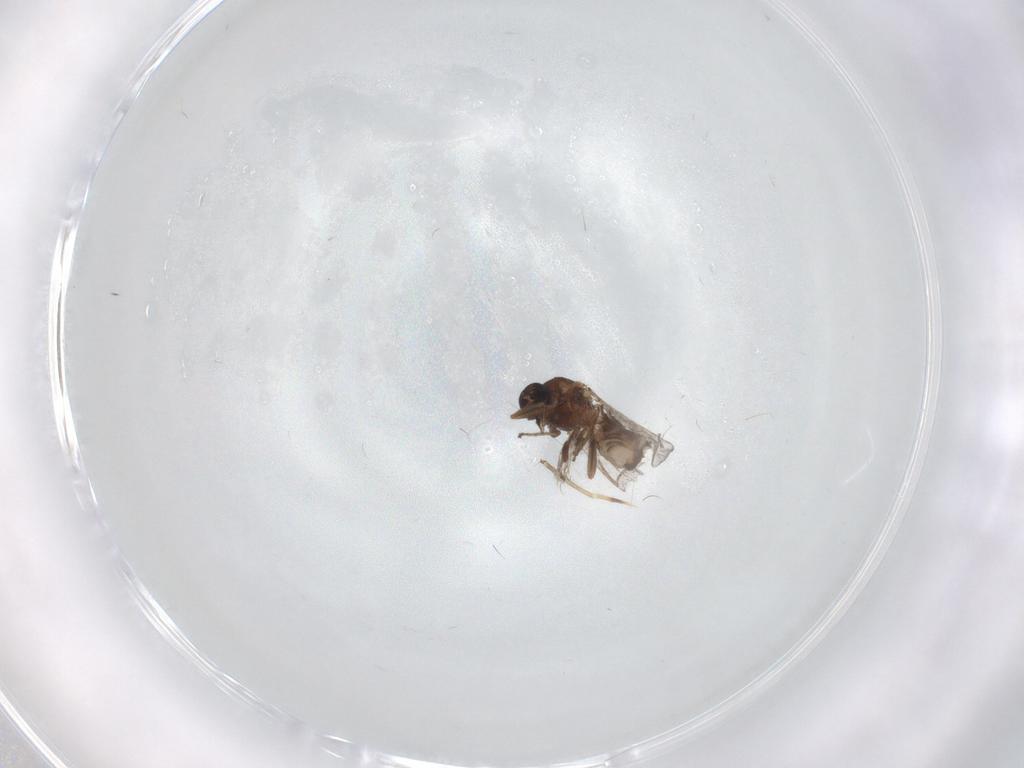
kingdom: Animalia
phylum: Arthropoda
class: Insecta
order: Diptera
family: Ceratopogonidae
